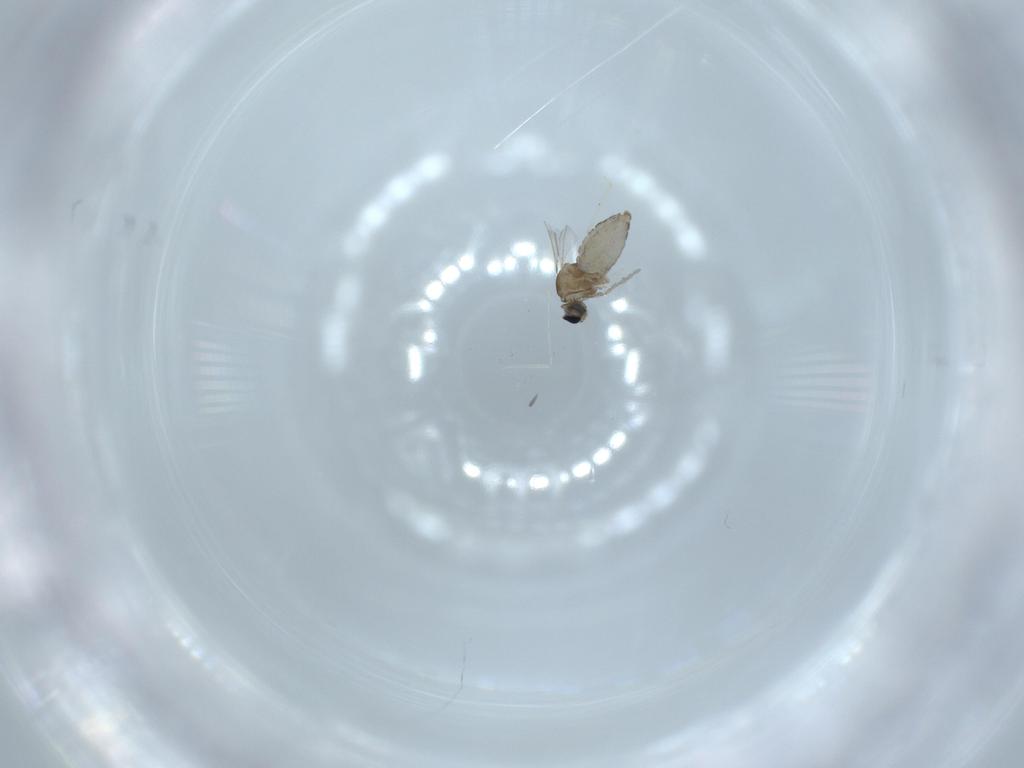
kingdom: Animalia
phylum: Arthropoda
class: Insecta
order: Diptera
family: Cecidomyiidae
